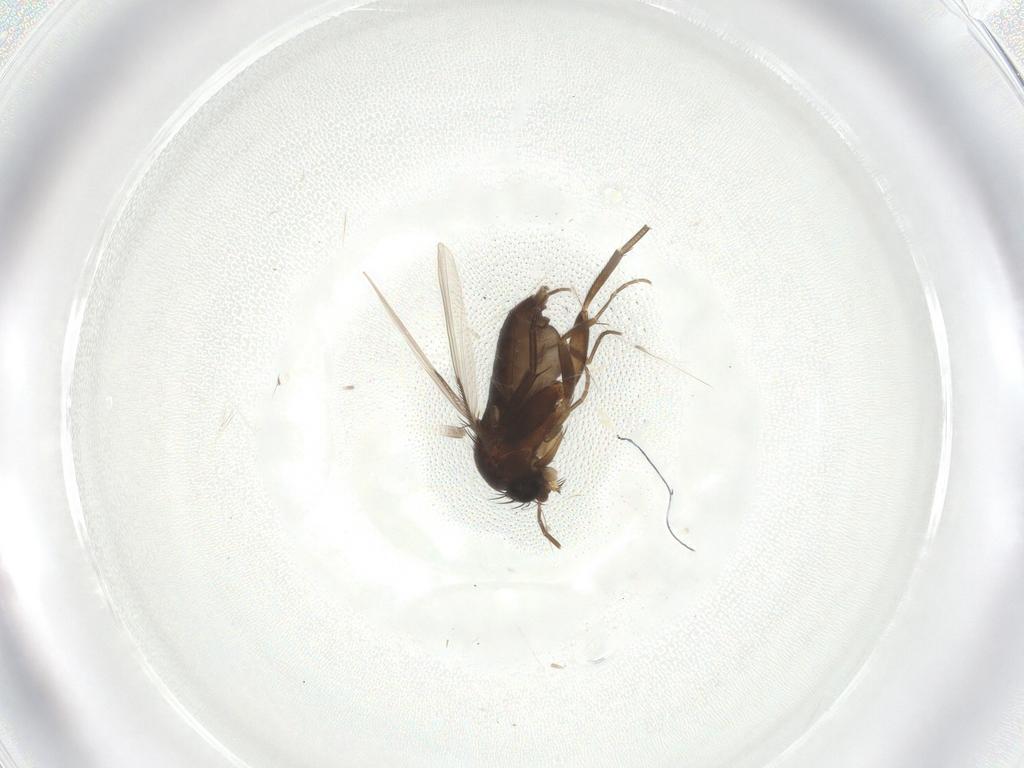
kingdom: Animalia
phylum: Arthropoda
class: Insecta
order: Diptera
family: Phoridae
